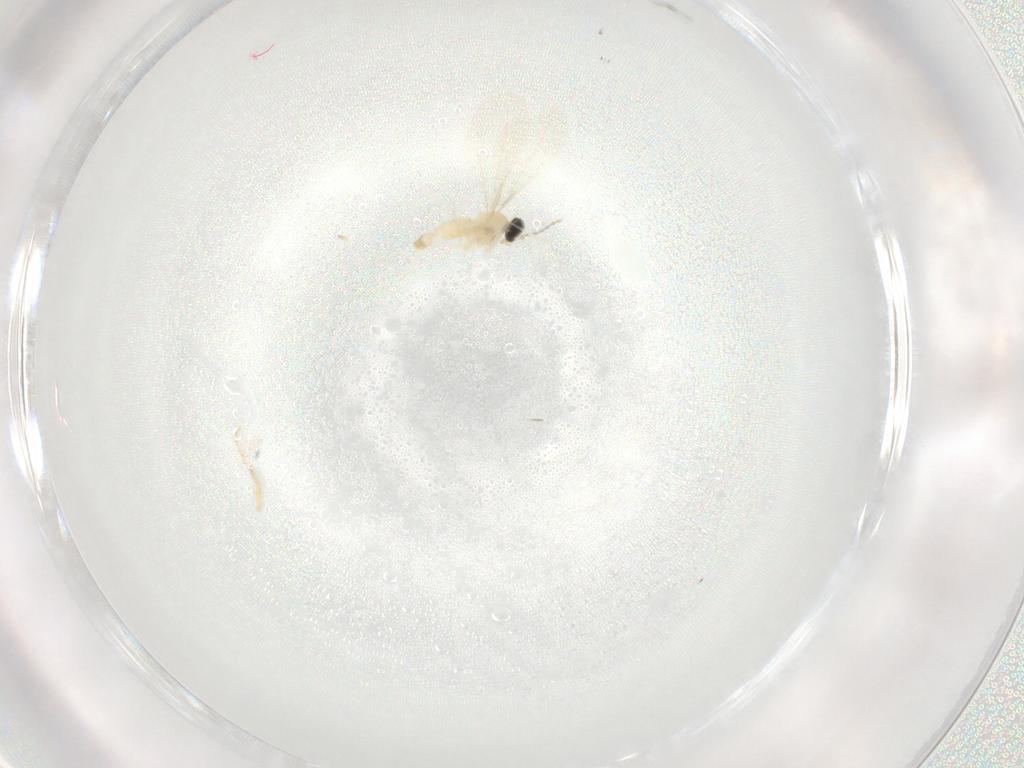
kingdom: Animalia
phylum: Arthropoda
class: Insecta
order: Diptera
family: Cecidomyiidae
